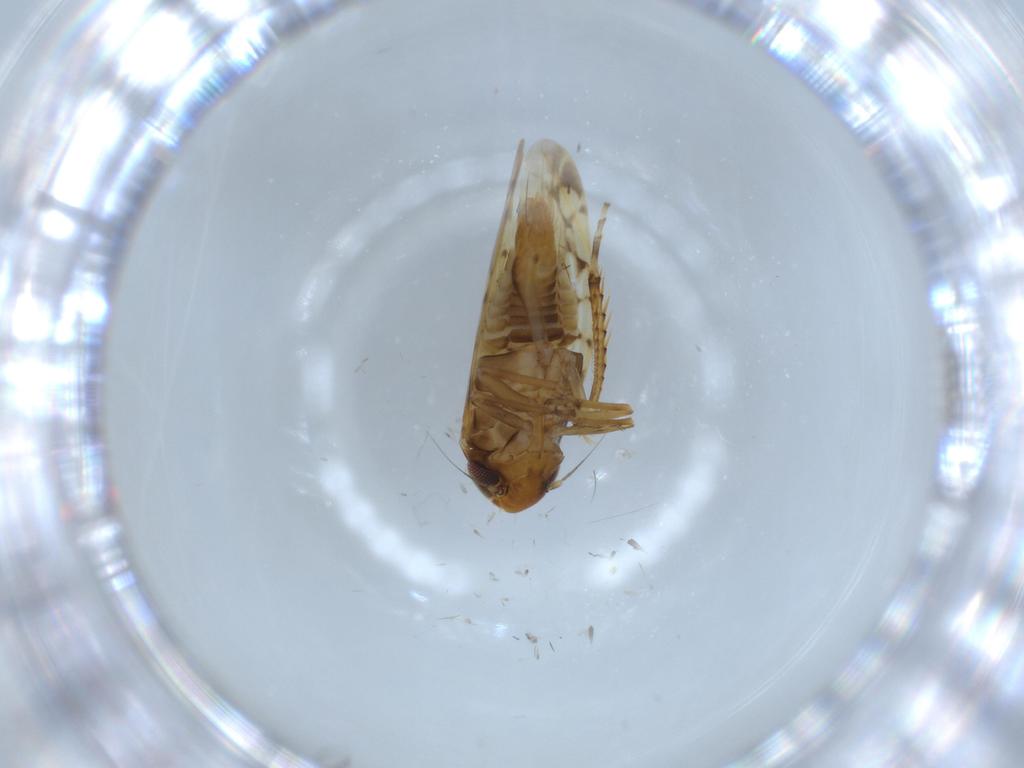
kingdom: Animalia
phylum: Arthropoda
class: Insecta
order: Hemiptera
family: Cicadellidae
